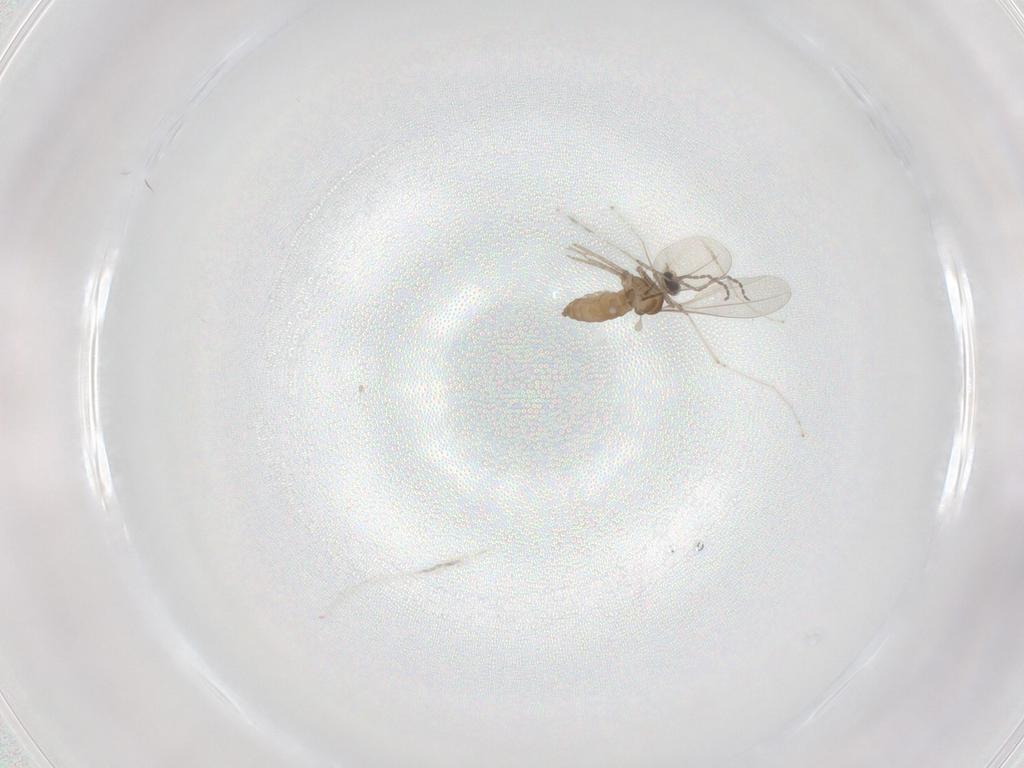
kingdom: Animalia
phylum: Arthropoda
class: Insecta
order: Diptera
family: Cecidomyiidae
